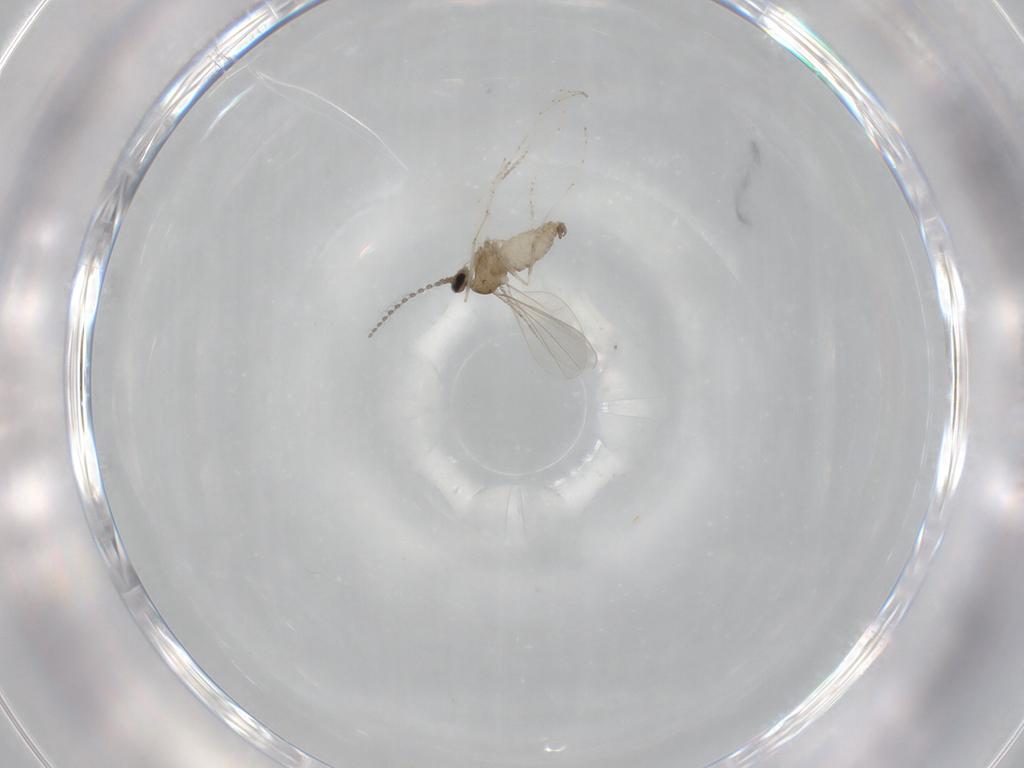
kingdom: Animalia
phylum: Arthropoda
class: Insecta
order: Diptera
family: Cecidomyiidae
